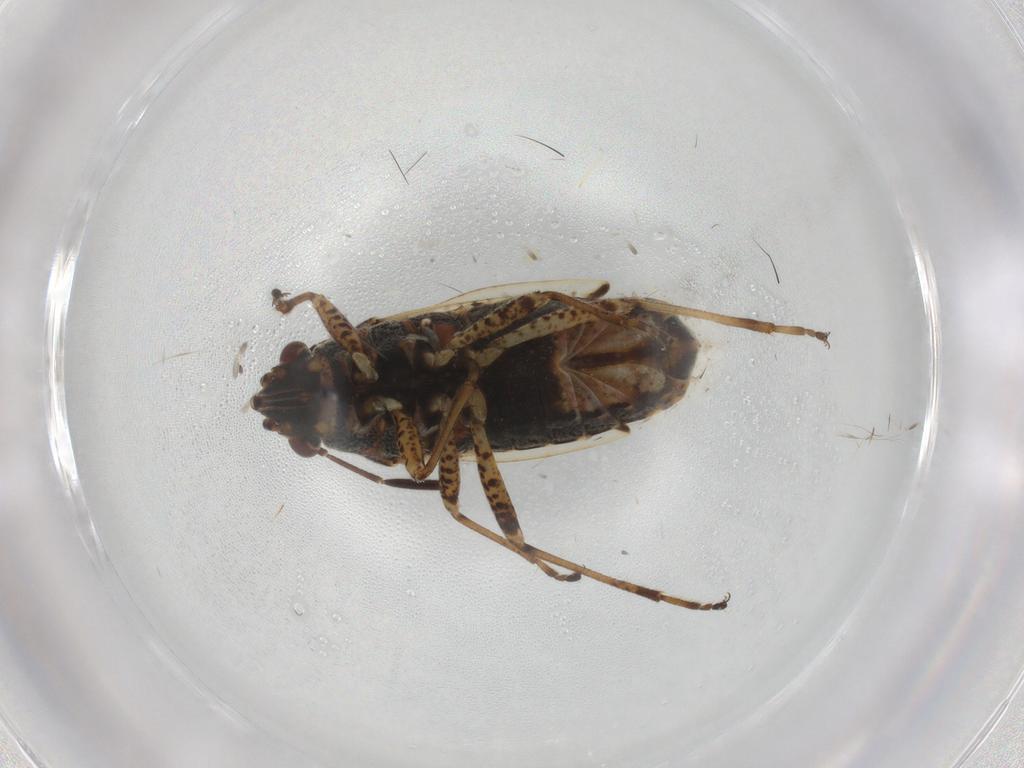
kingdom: Animalia
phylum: Arthropoda
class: Insecta
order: Hemiptera
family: Lygaeidae
